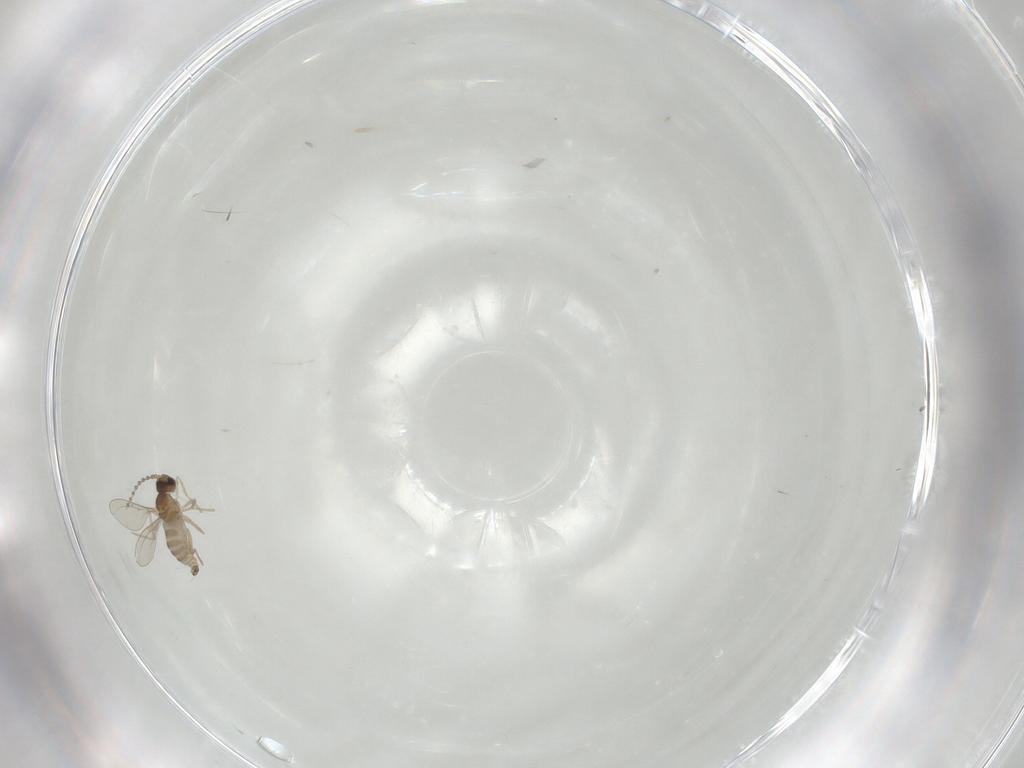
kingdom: Animalia
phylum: Arthropoda
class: Insecta
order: Diptera
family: Cecidomyiidae
